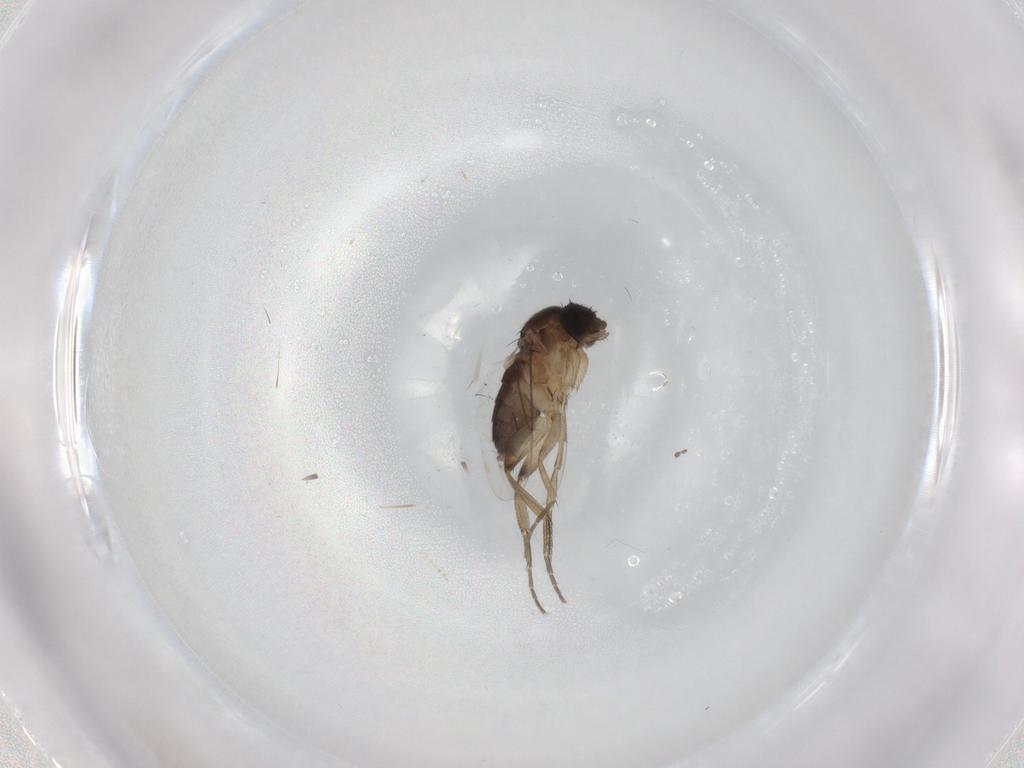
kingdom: Animalia
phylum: Arthropoda
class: Insecta
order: Diptera
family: Phoridae
